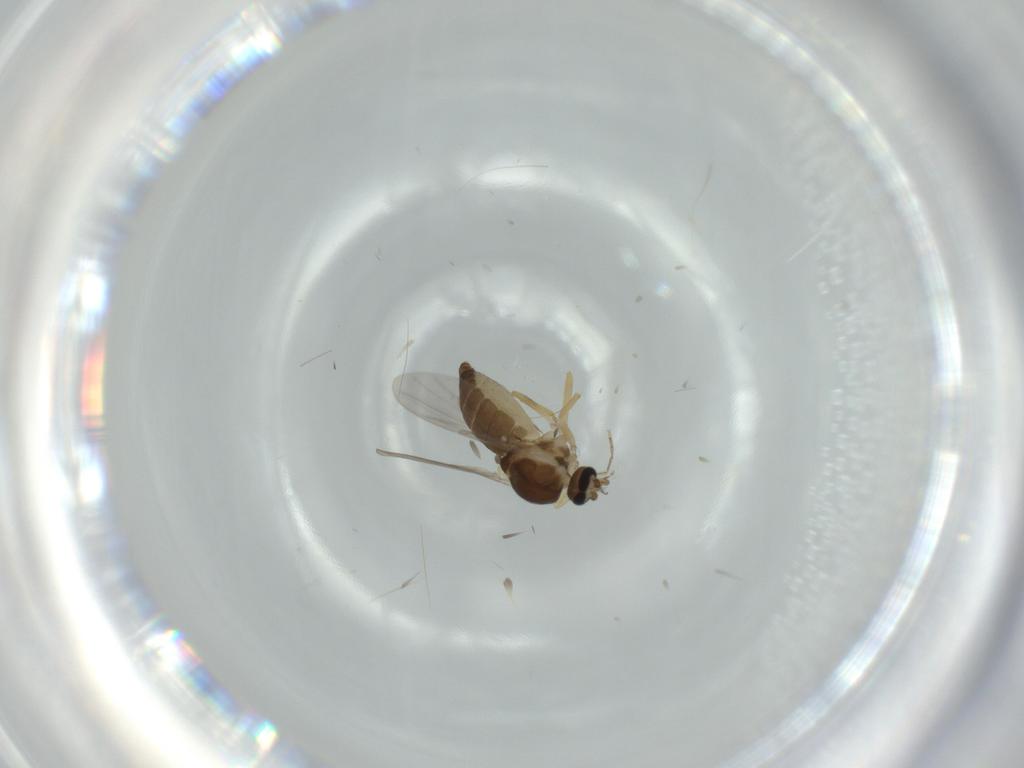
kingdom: Animalia
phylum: Arthropoda
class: Insecta
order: Diptera
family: Ceratopogonidae
